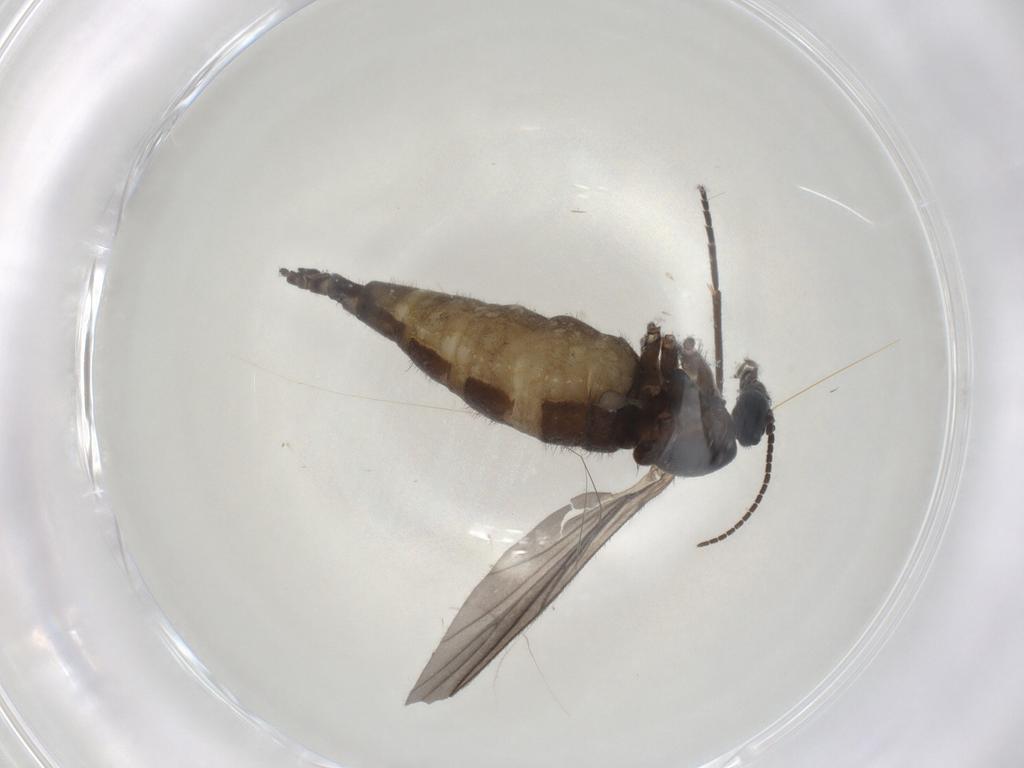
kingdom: Animalia
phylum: Arthropoda
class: Insecta
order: Diptera
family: Sciaridae
